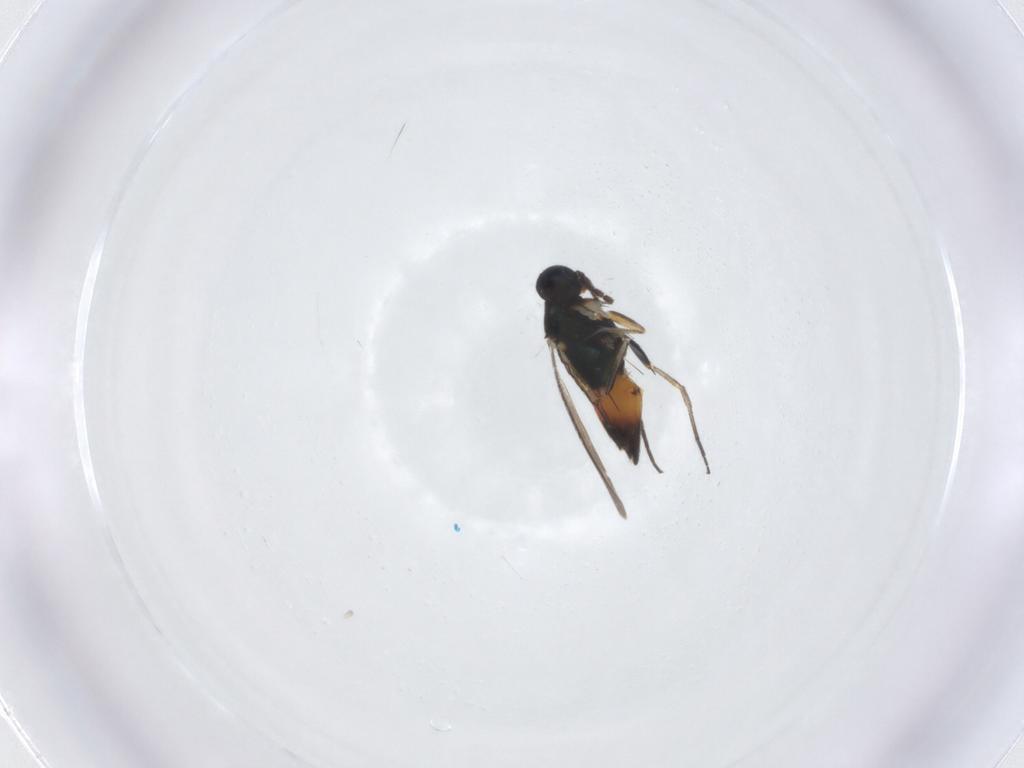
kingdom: Animalia
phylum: Arthropoda
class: Insecta
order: Hymenoptera
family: Eulophidae
